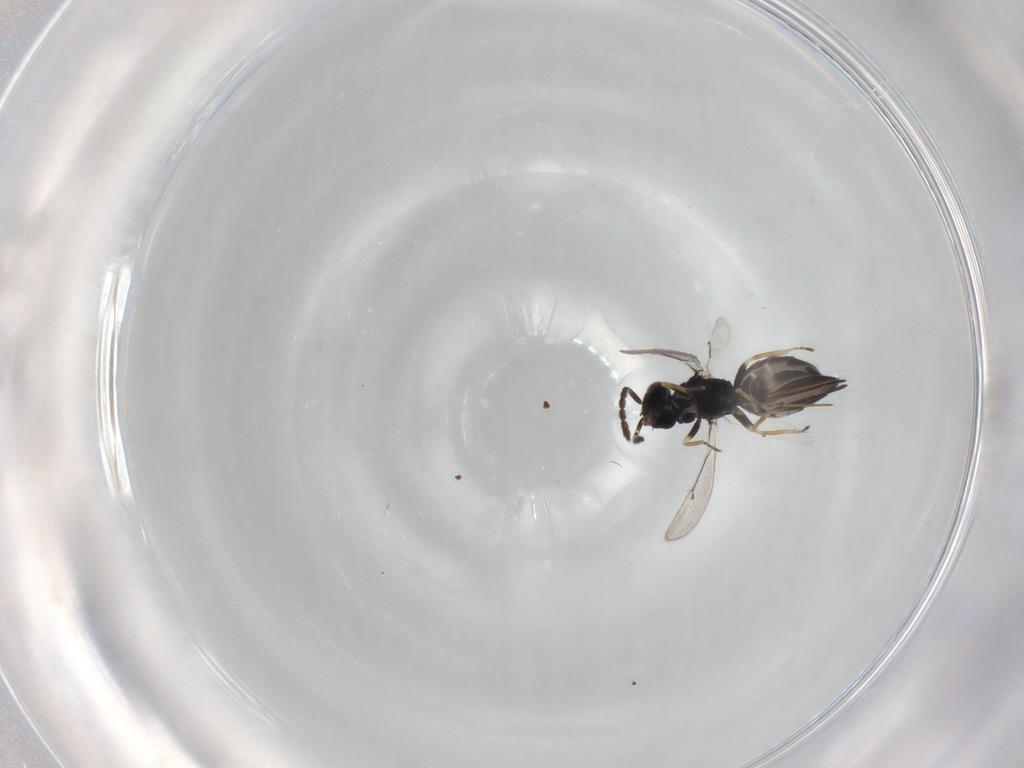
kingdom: Animalia
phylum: Arthropoda
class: Insecta
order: Hymenoptera
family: Eulophidae
